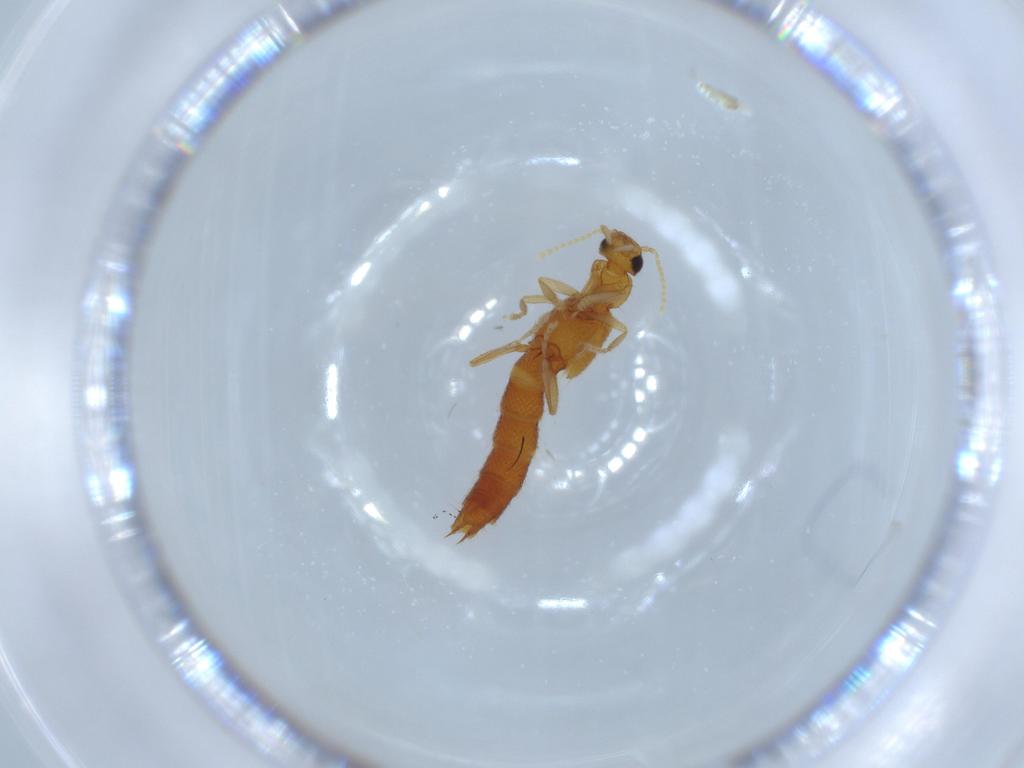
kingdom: Animalia
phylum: Arthropoda
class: Insecta
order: Coleoptera
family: Staphylinidae
